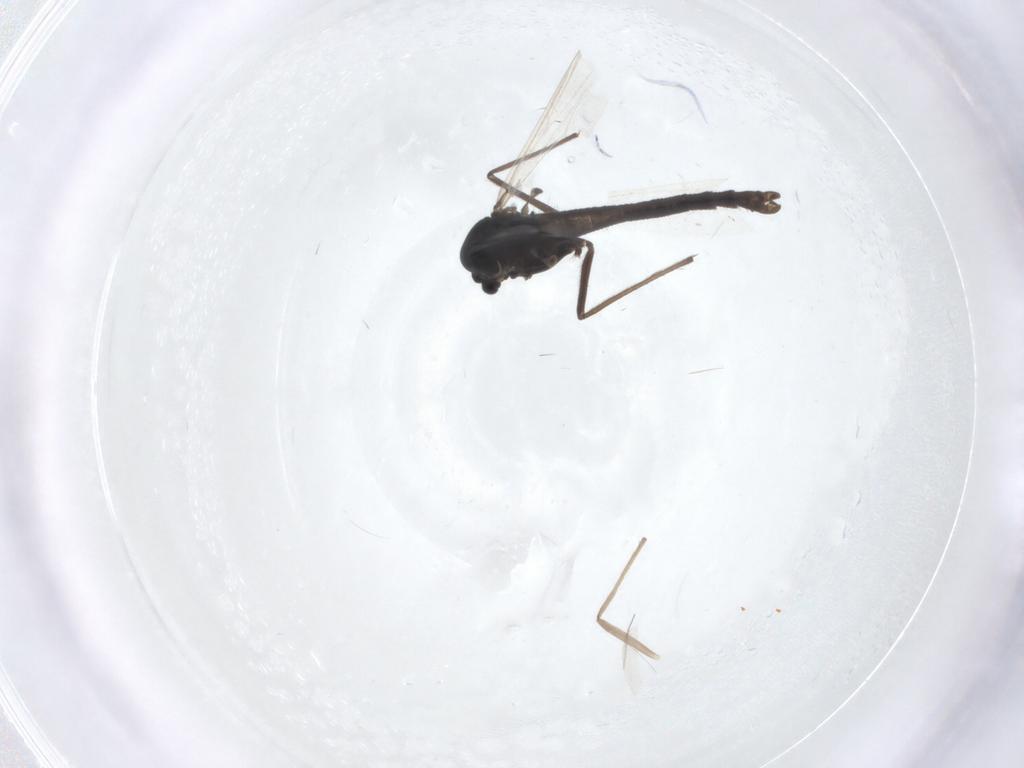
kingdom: Animalia
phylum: Arthropoda
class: Insecta
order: Diptera
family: Chironomidae
